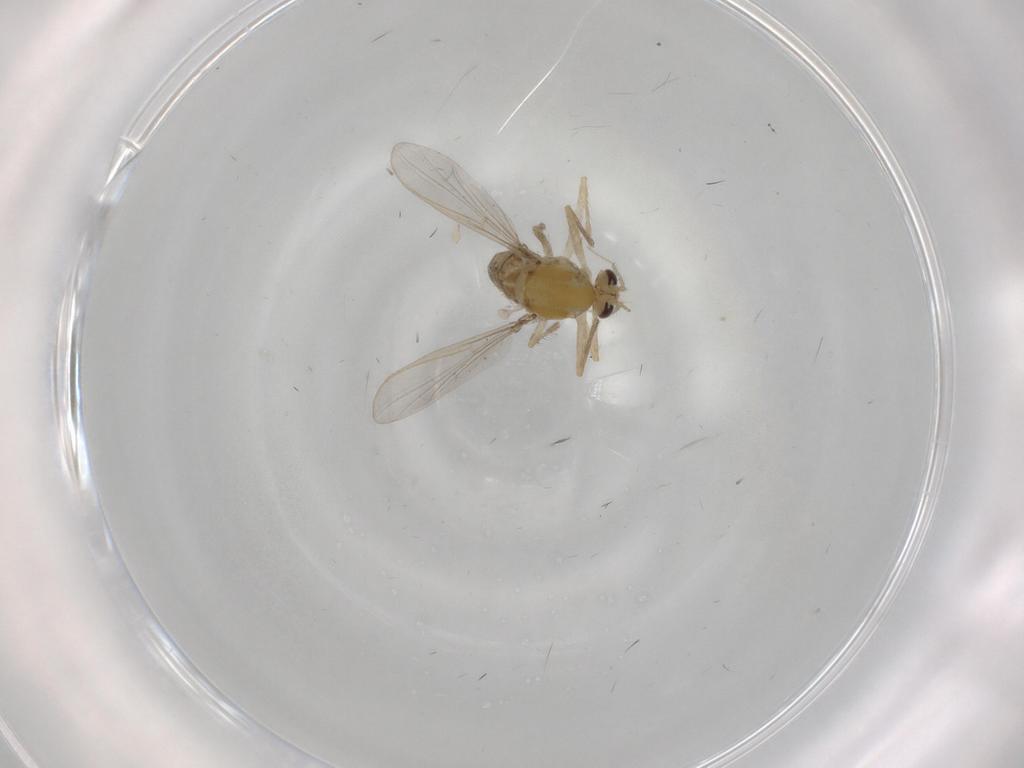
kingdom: Animalia
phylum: Arthropoda
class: Insecta
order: Diptera
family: Chironomidae
